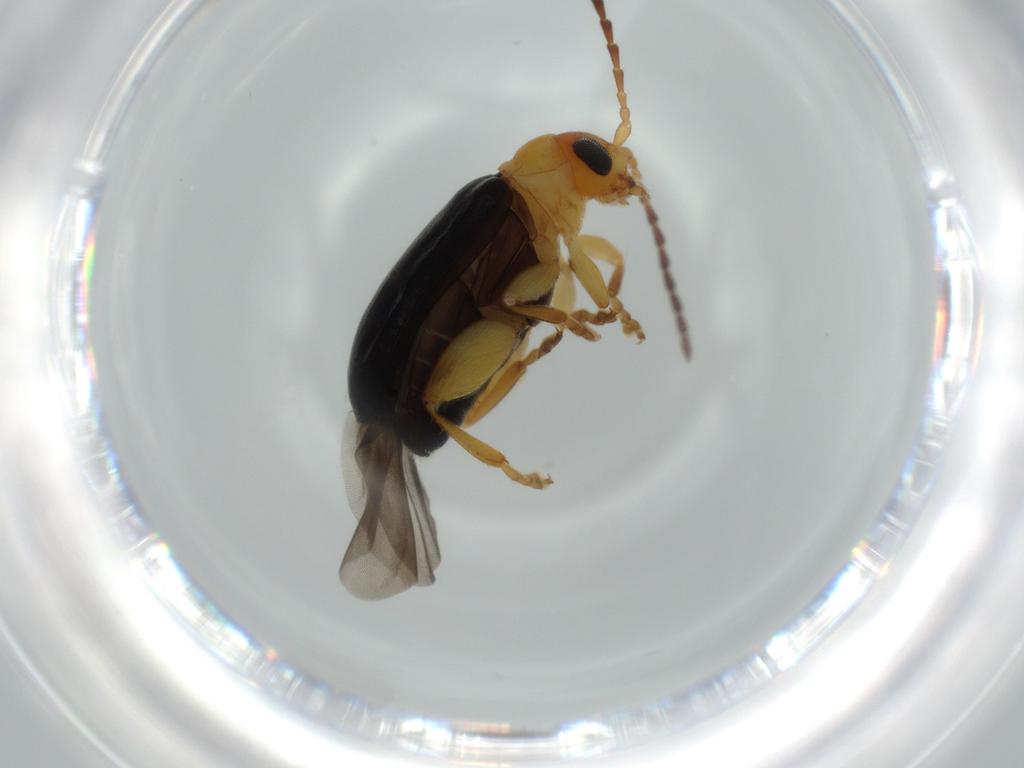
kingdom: Animalia
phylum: Arthropoda
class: Insecta
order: Coleoptera
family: Chrysomelidae
